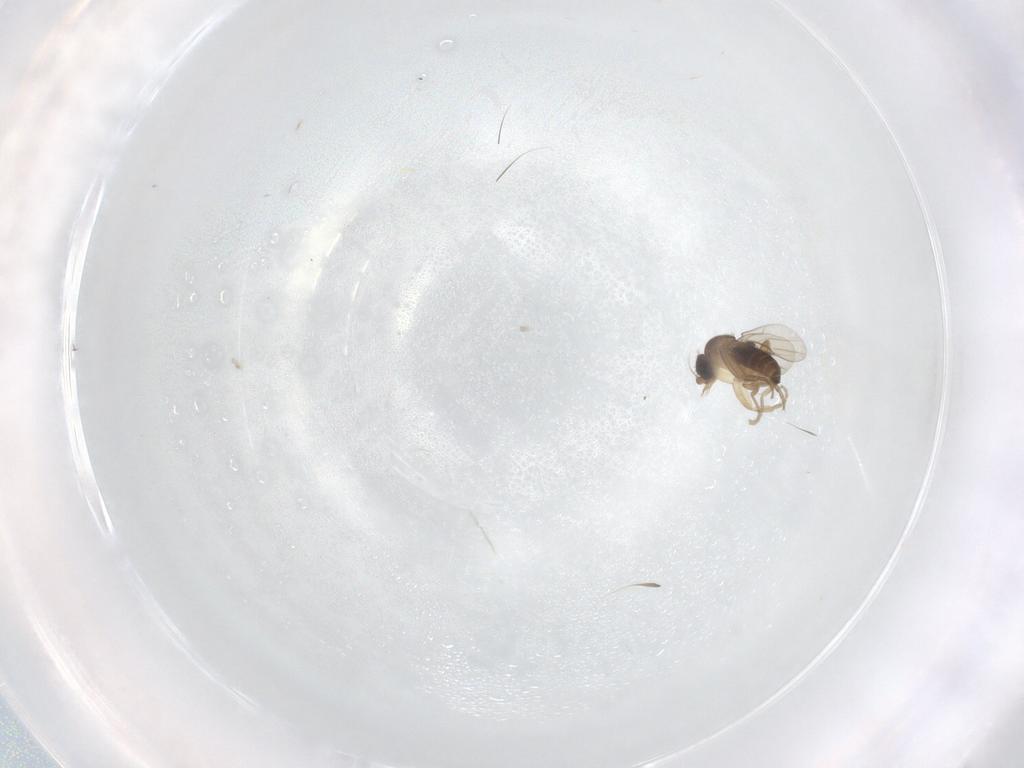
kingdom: Animalia
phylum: Arthropoda
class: Insecta
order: Diptera
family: Phoridae
